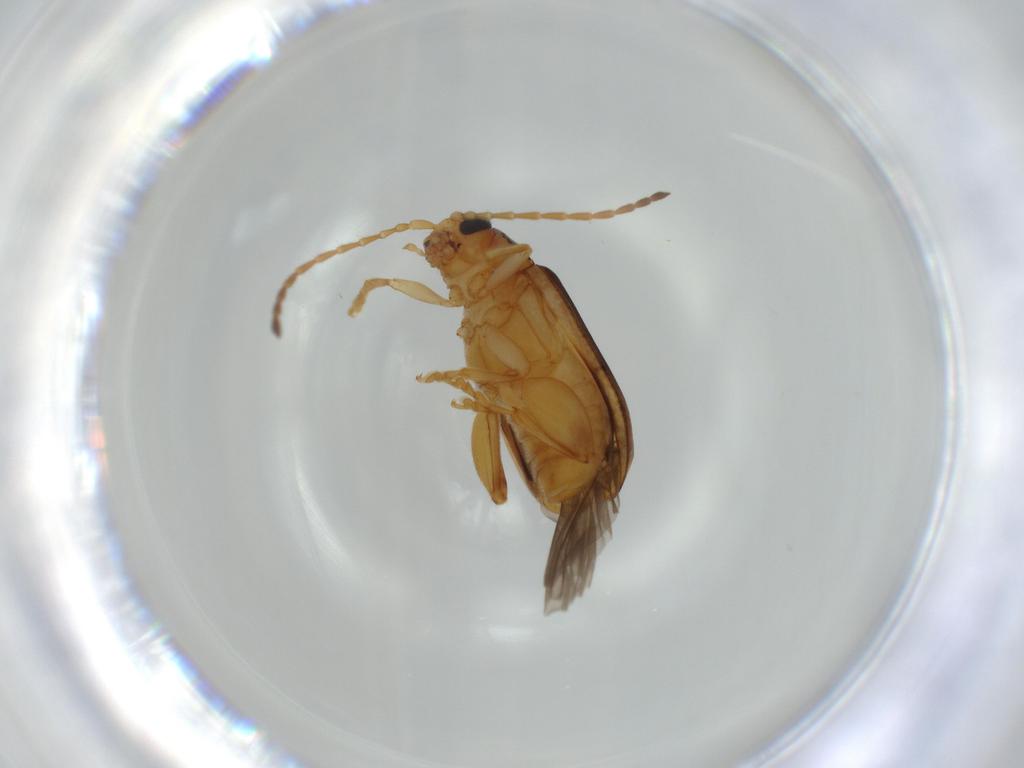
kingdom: Animalia
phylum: Arthropoda
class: Insecta
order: Coleoptera
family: Chrysomelidae
